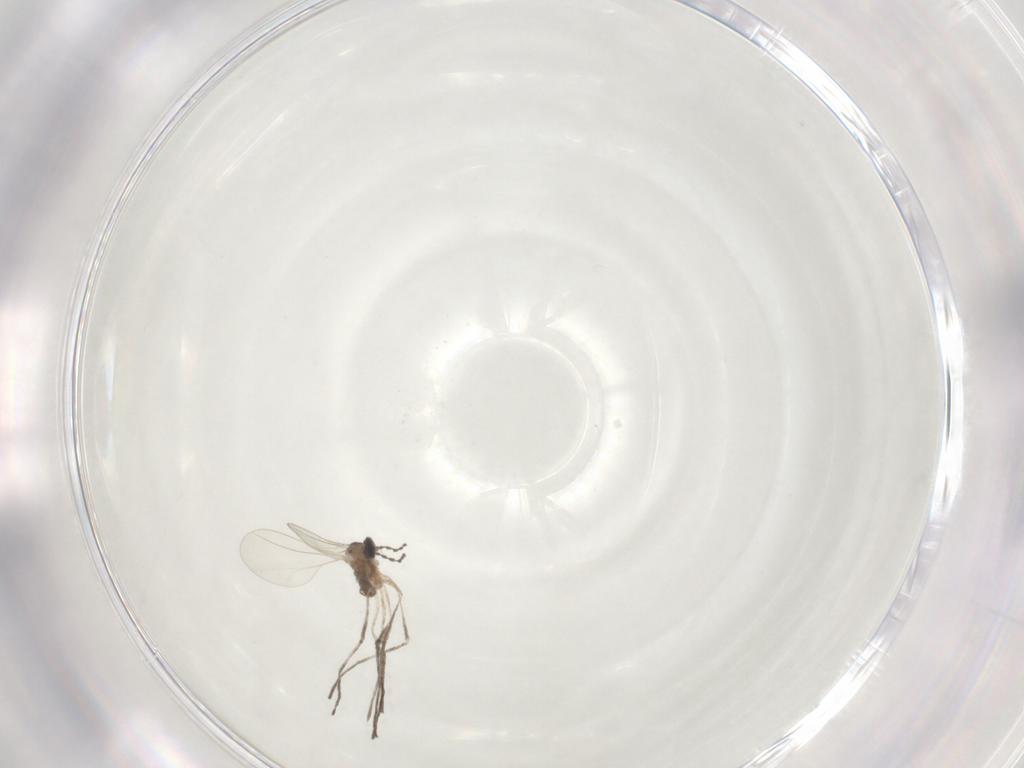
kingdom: Animalia
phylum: Arthropoda
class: Insecta
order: Diptera
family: Cecidomyiidae
